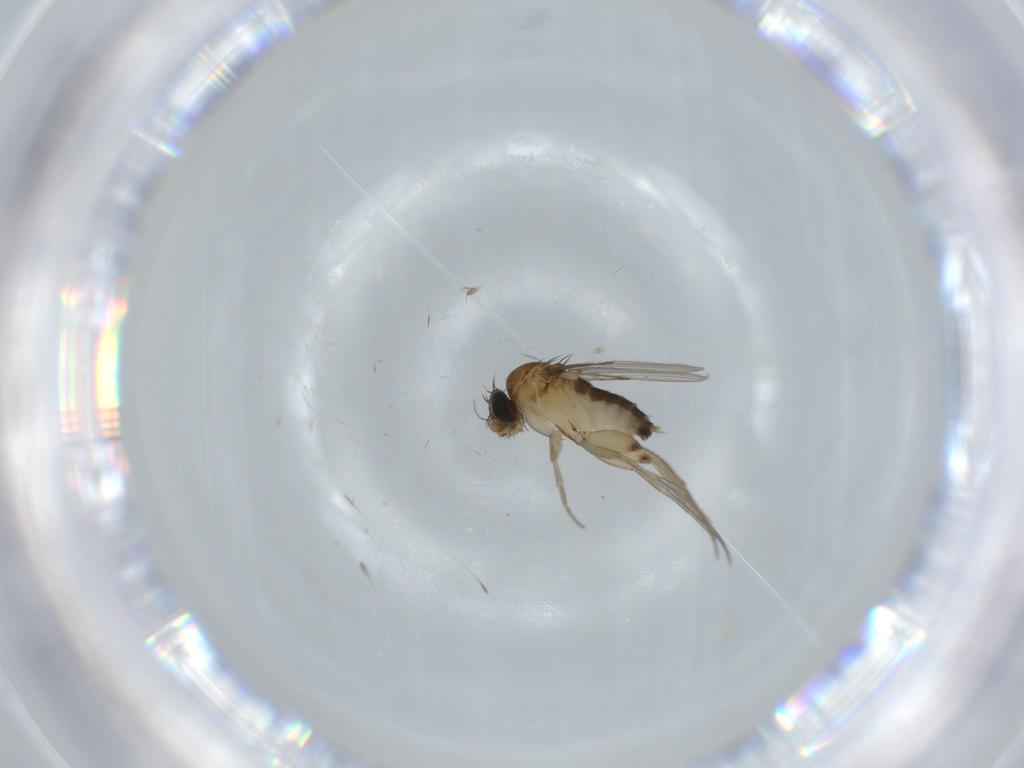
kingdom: Animalia
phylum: Arthropoda
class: Insecta
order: Diptera
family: Phoridae
